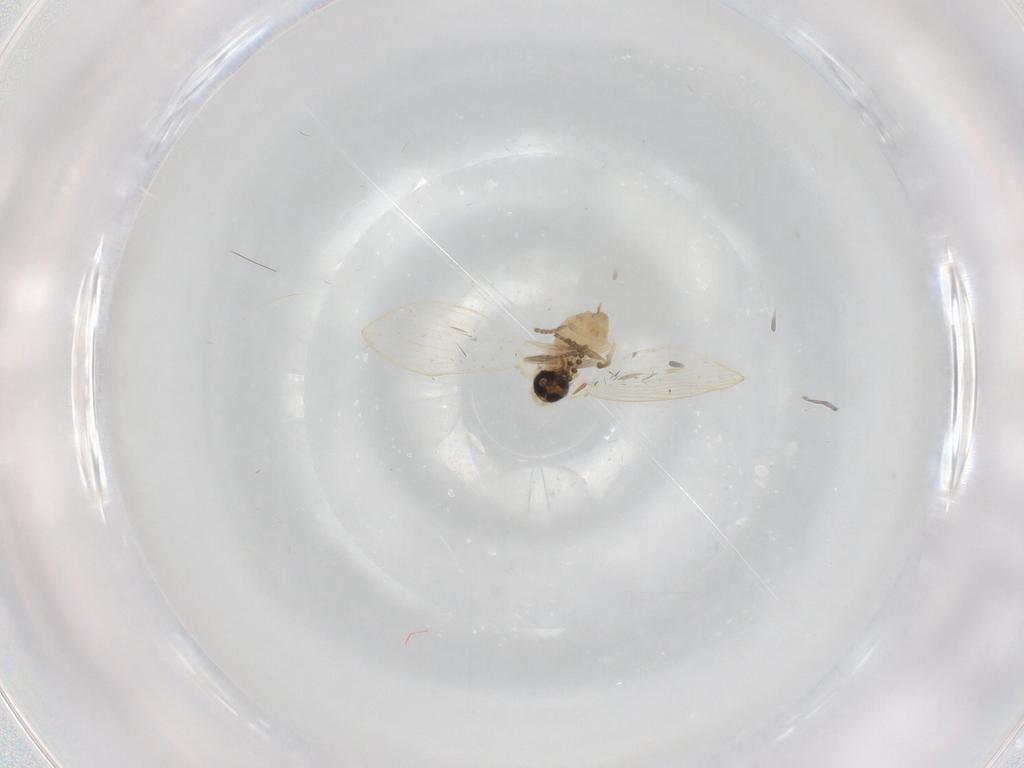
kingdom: Animalia
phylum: Arthropoda
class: Insecta
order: Diptera
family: Psychodidae
